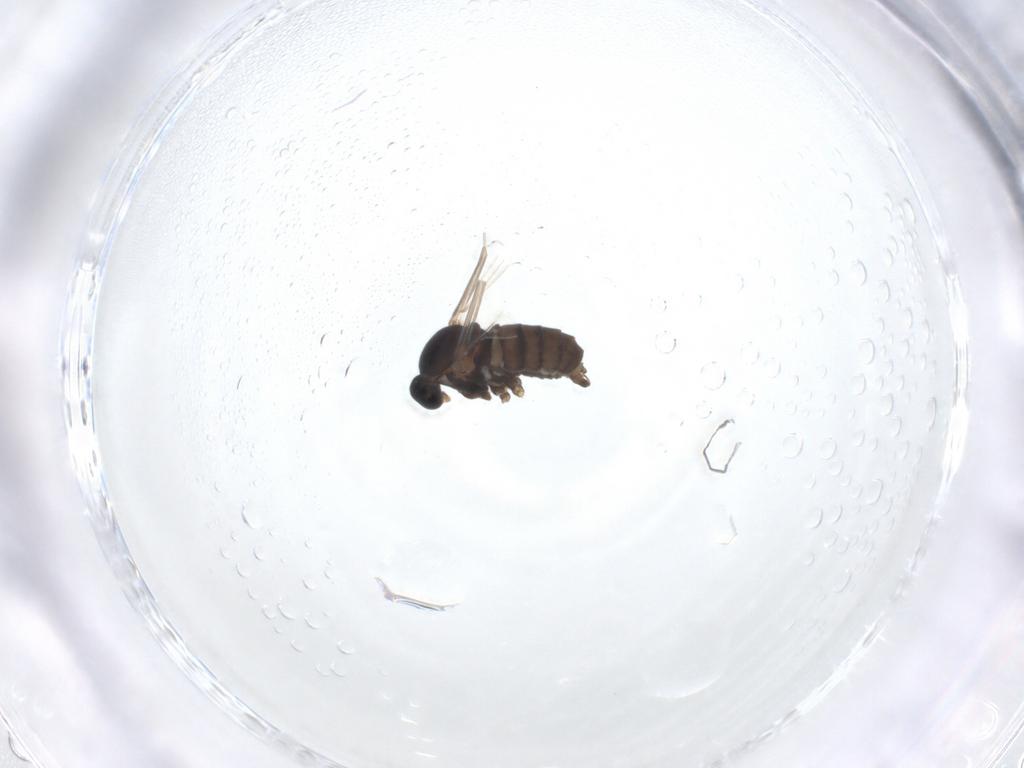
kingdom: Animalia
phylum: Arthropoda
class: Insecta
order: Diptera
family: Cecidomyiidae
